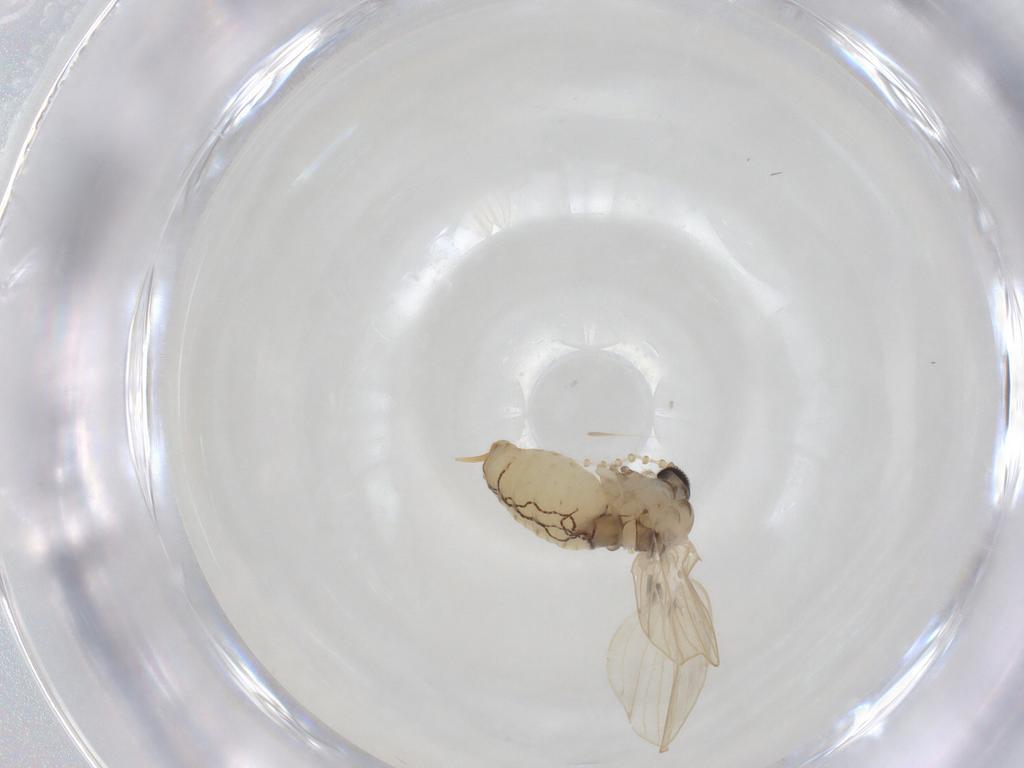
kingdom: Animalia
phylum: Arthropoda
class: Insecta
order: Diptera
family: Psychodidae
